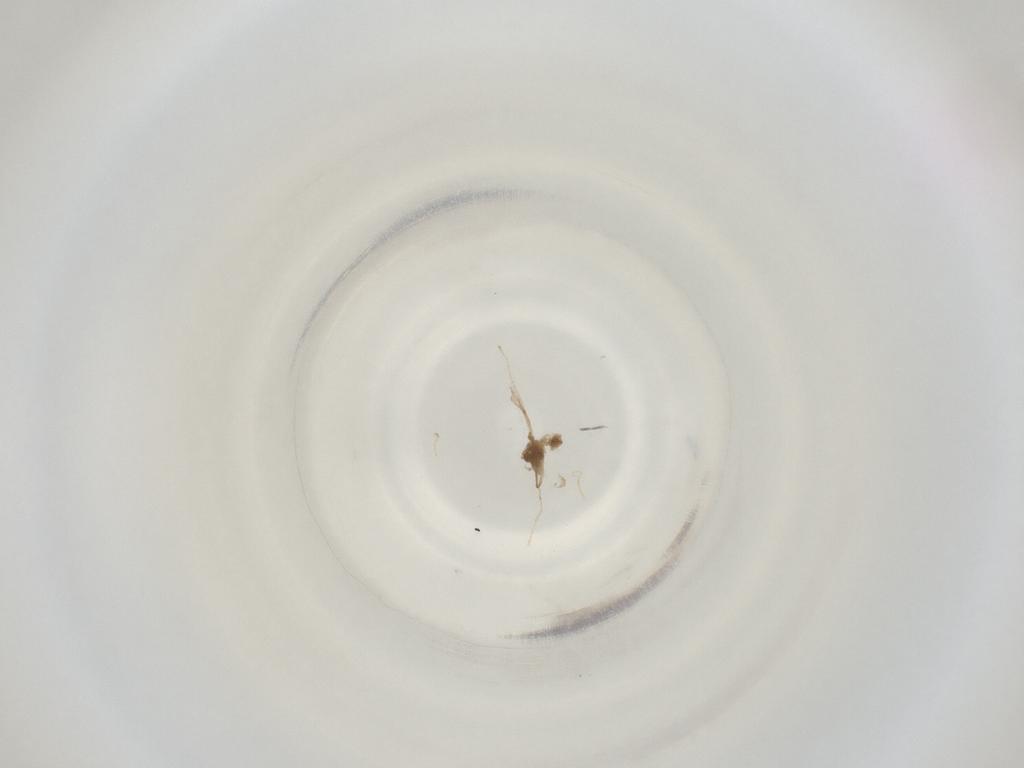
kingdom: Animalia
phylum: Arthropoda
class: Insecta
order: Diptera
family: Cecidomyiidae
